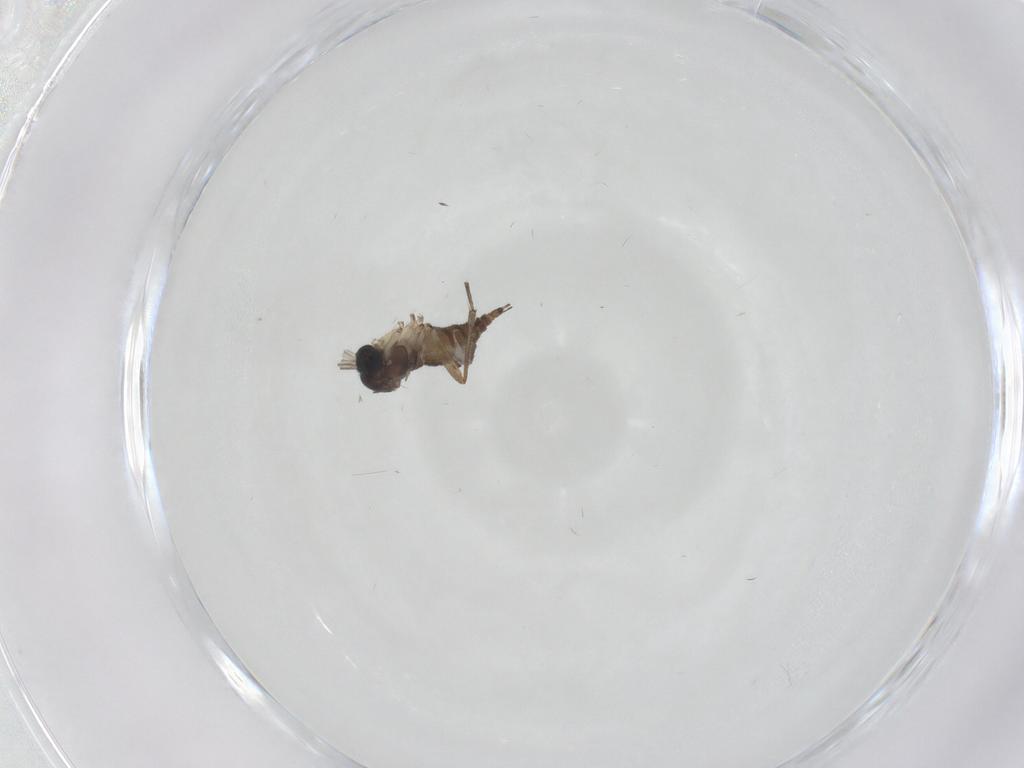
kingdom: Animalia
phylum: Arthropoda
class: Insecta
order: Diptera
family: Sciaridae
